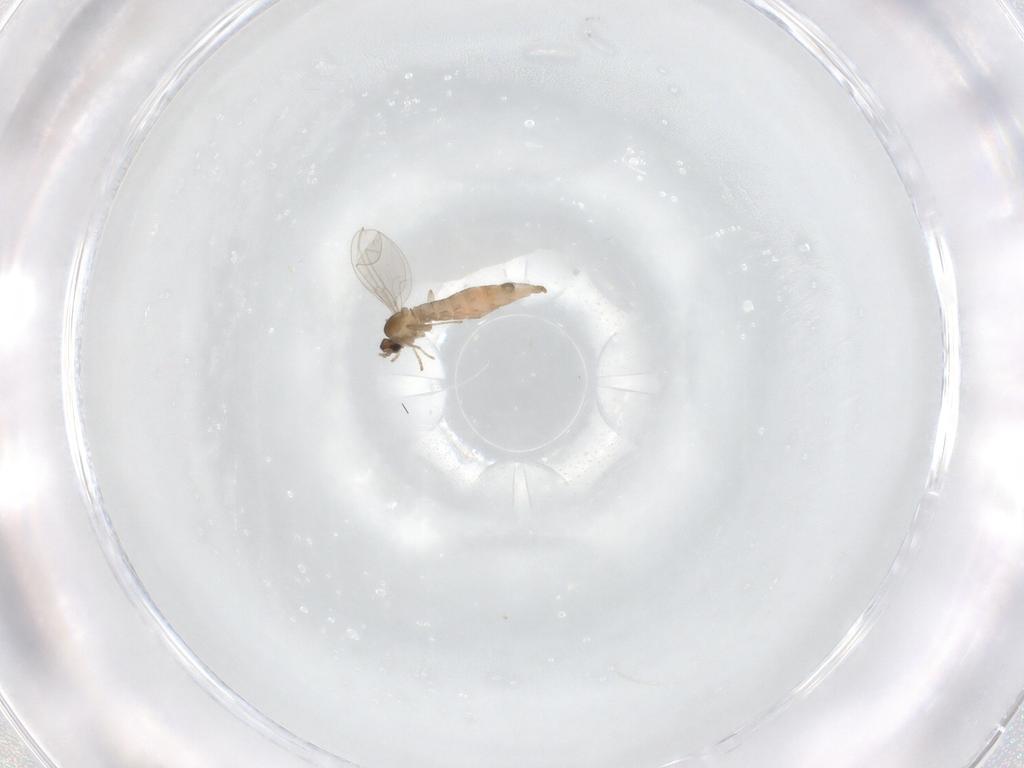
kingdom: Animalia
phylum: Arthropoda
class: Insecta
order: Diptera
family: Cecidomyiidae
